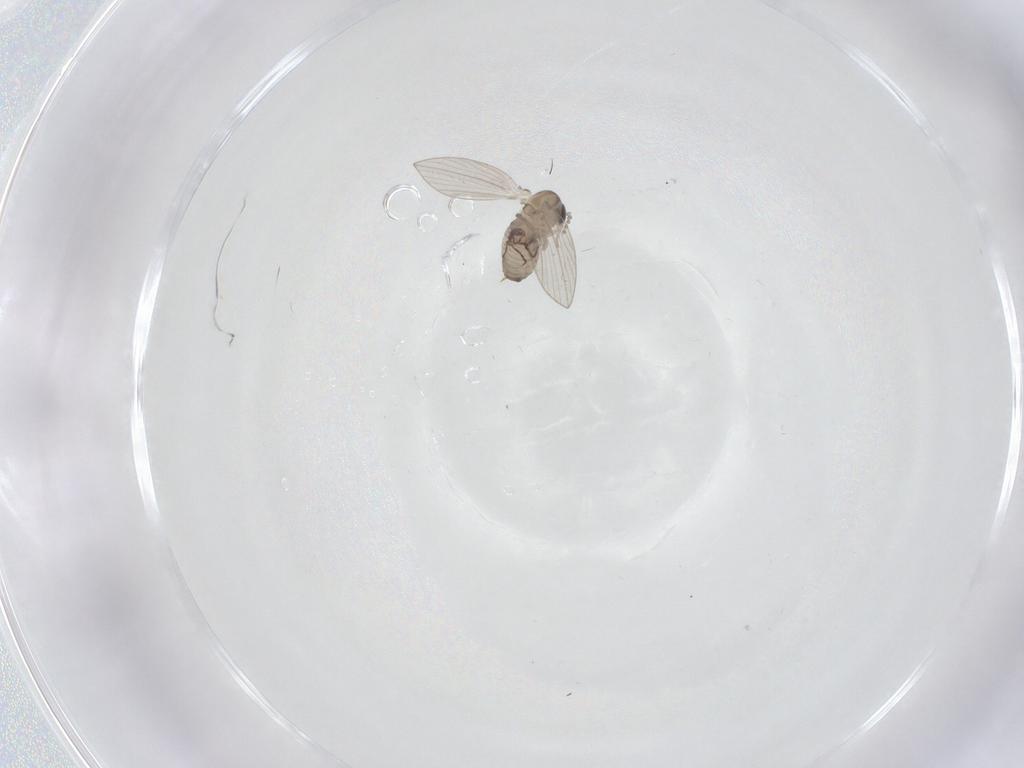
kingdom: Animalia
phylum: Arthropoda
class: Insecta
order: Diptera
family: Psychodidae
